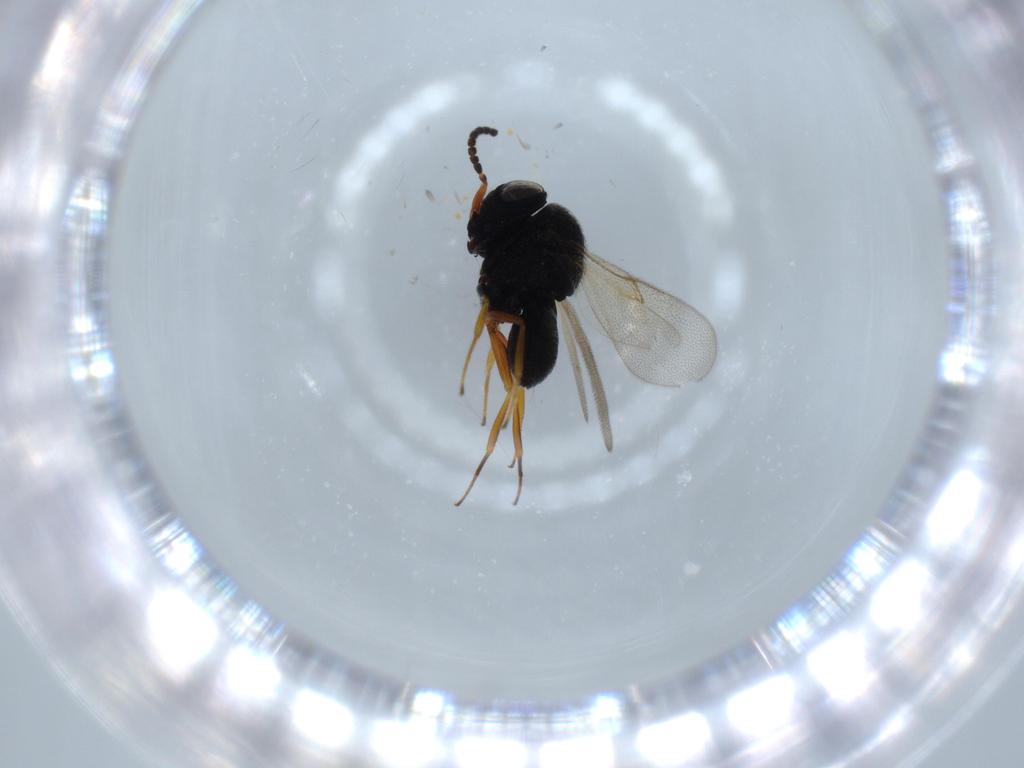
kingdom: Animalia
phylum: Arthropoda
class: Insecta
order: Hymenoptera
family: Scelionidae
